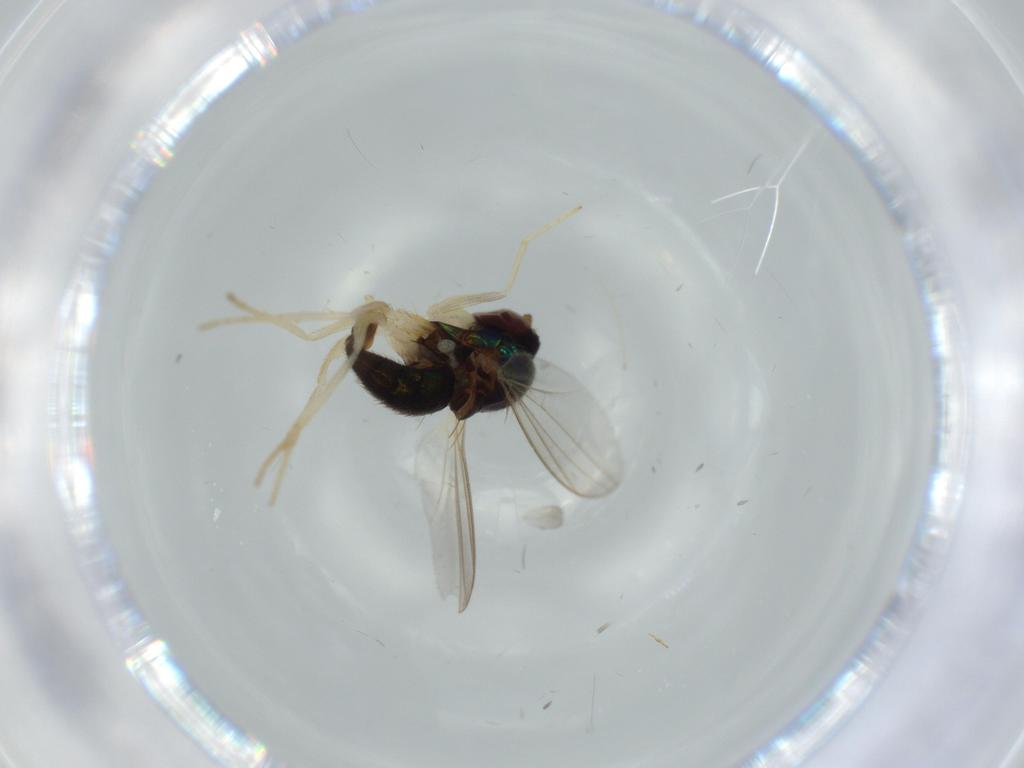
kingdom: Animalia
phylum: Arthropoda
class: Insecta
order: Diptera
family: Dolichopodidae
